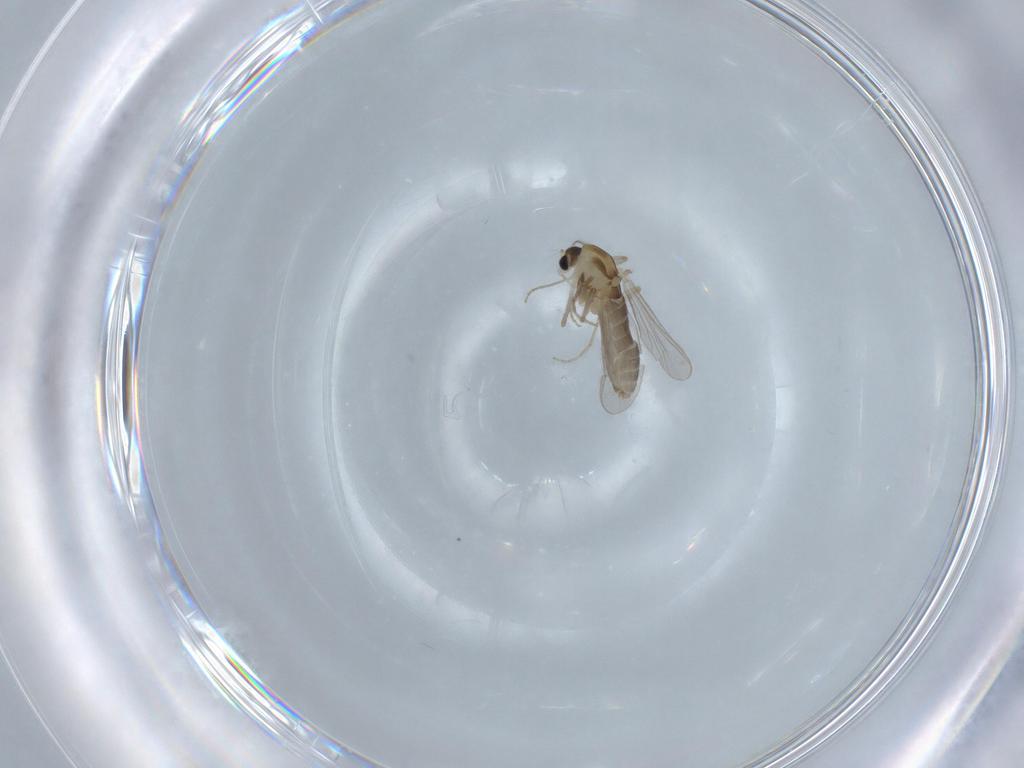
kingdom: Animalia
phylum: Arthropoda
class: Insecta
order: Diptera
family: Chironomidae
